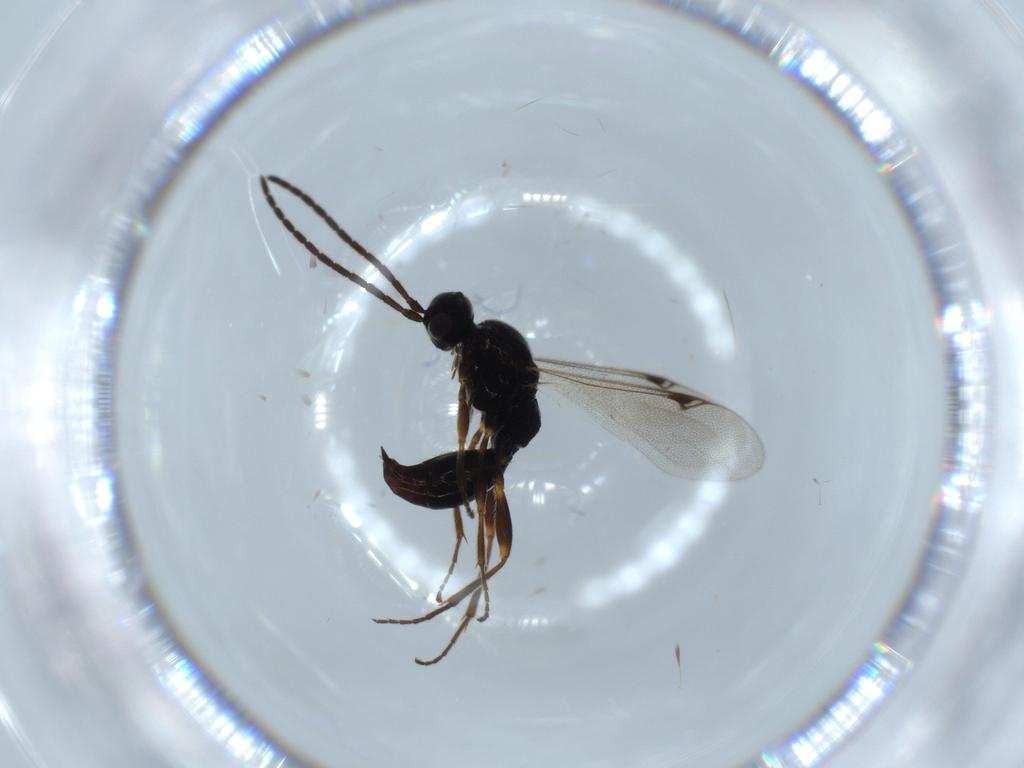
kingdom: Animalia
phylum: Arthropoda
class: Insecta
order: Hymenoptera
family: Proctotrupidae
